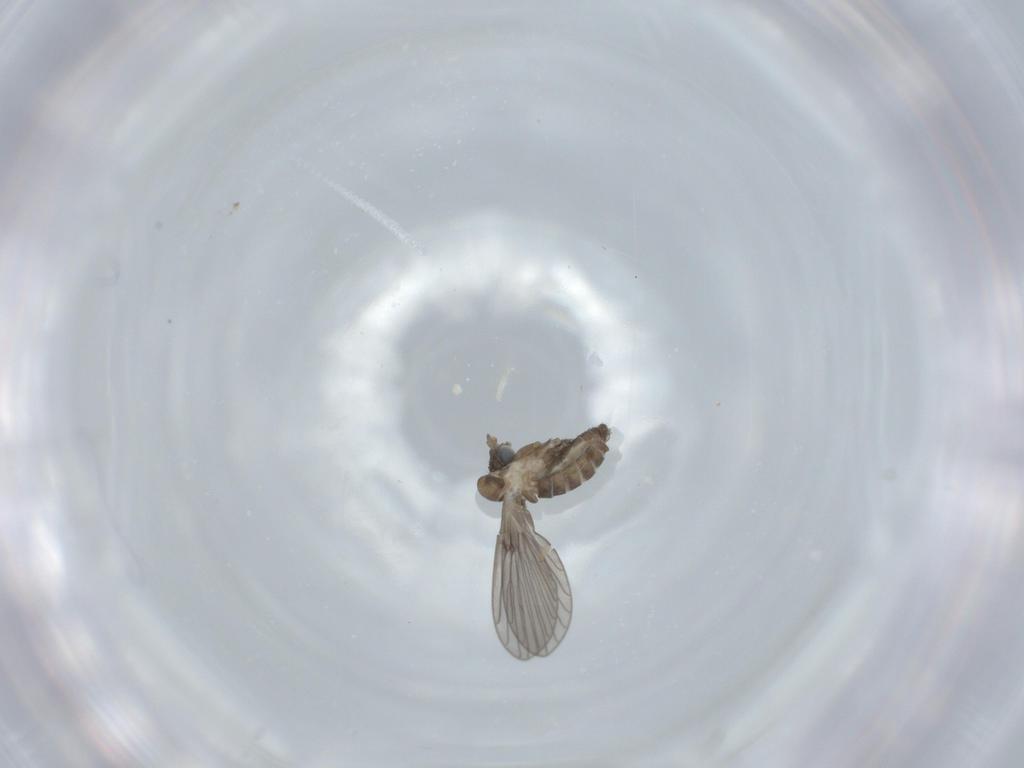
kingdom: Animalia
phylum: Arthropoda
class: Insecta
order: Diptera
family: Psychodidae
